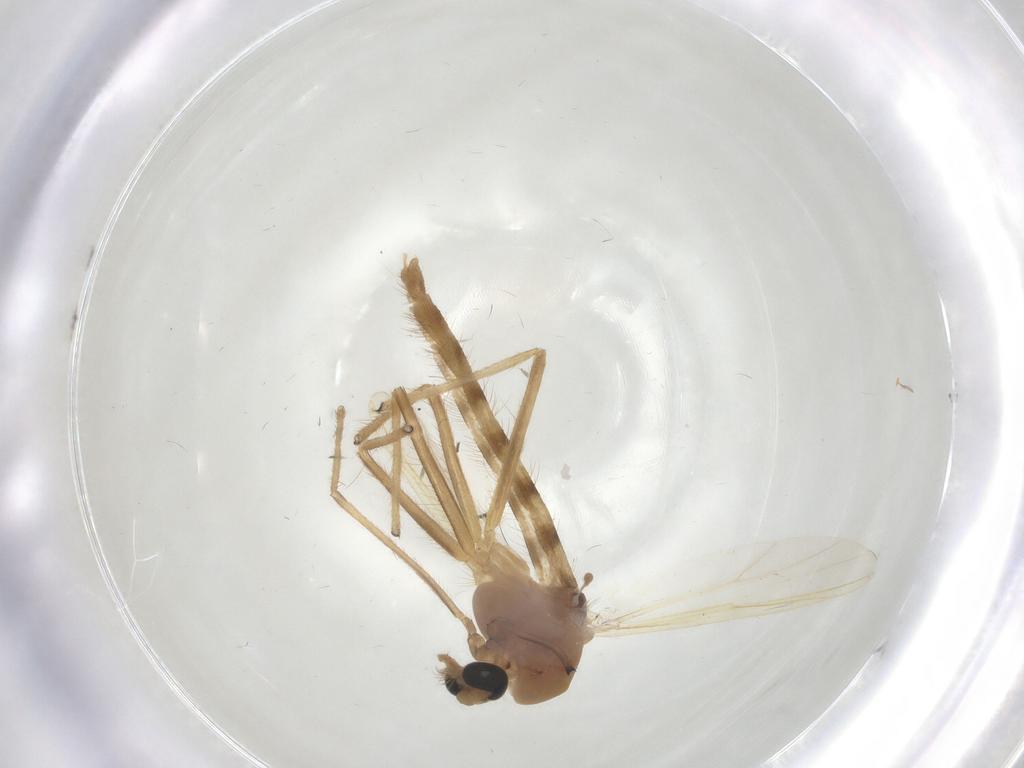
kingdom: Animalia
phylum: Arthropoda
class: Insecta
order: Diptera
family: Chironomidae
